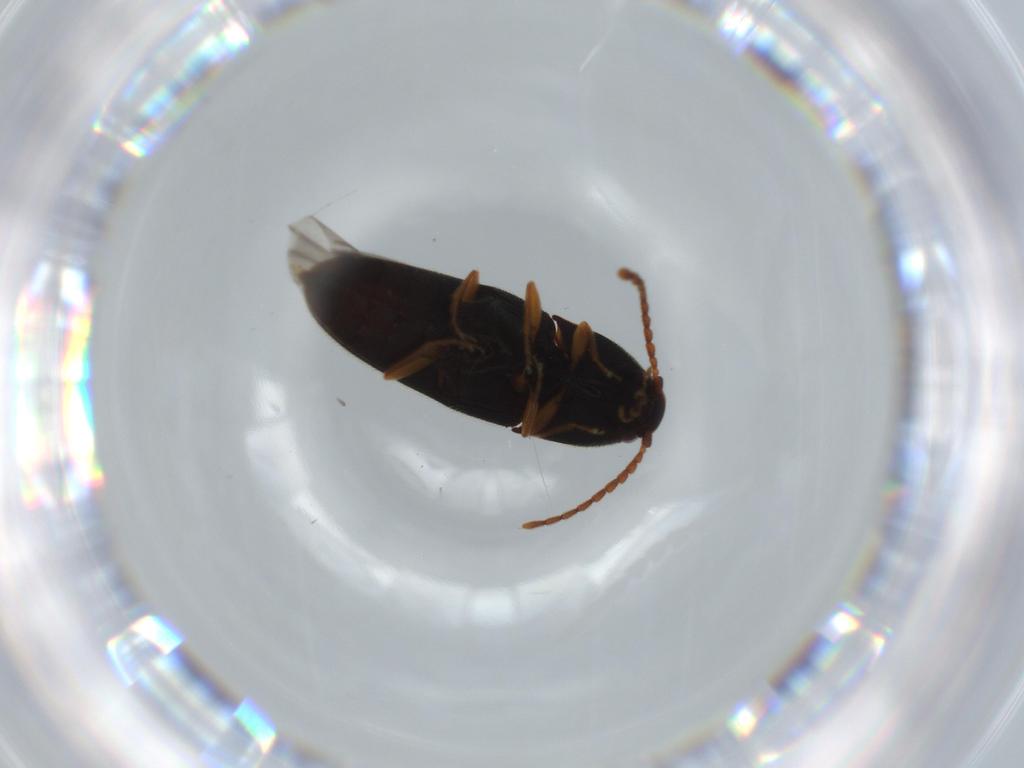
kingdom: Animalia
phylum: Arthropoda
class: Insecta
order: Coleoptera
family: Elateridae
